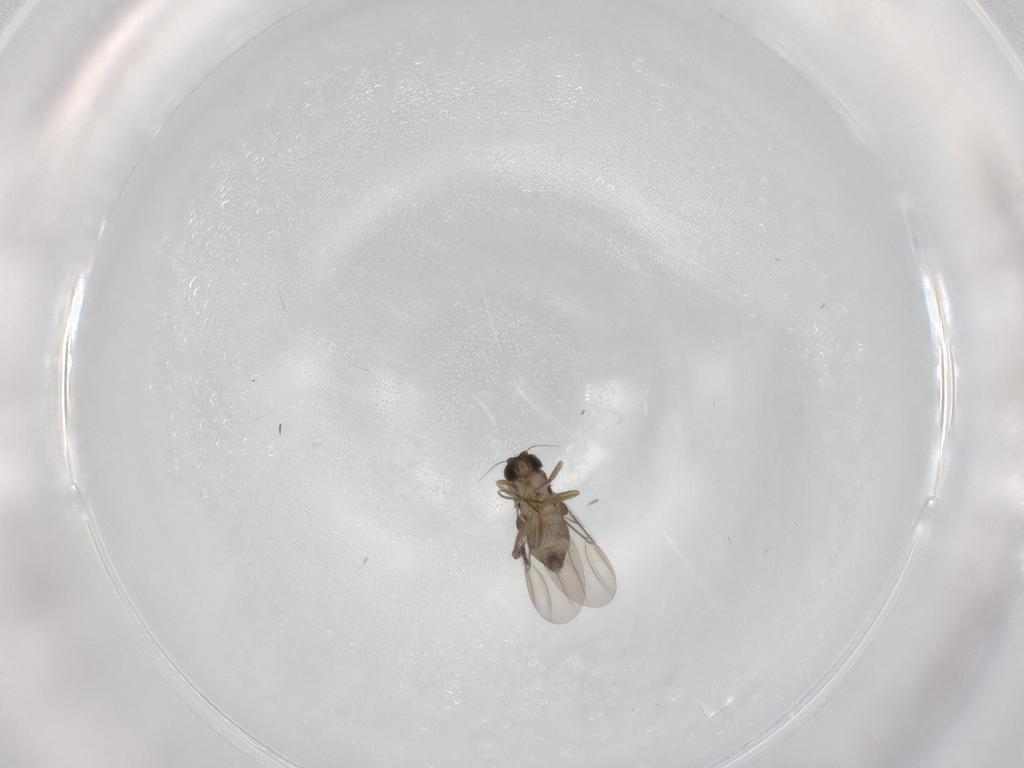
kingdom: Animalia
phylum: Arthropoda
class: Insecta
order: Diptera
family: Phoridae
